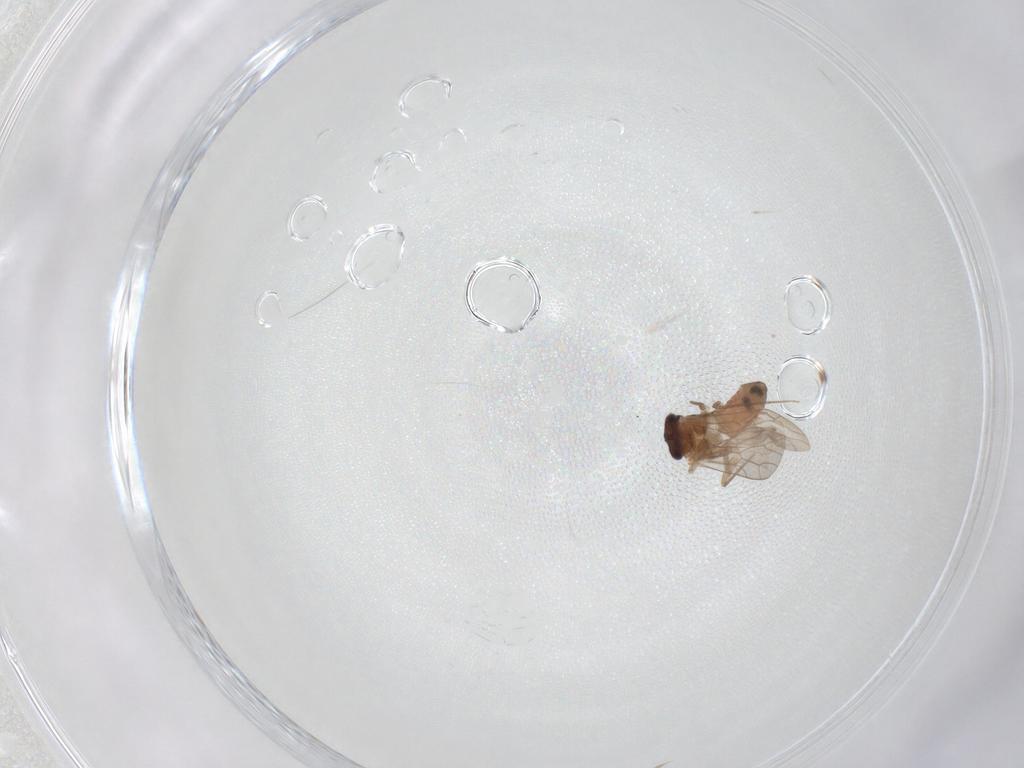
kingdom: Animalia
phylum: Arthropoda
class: Insecta
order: Psocodea
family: Lepidopsocidae
